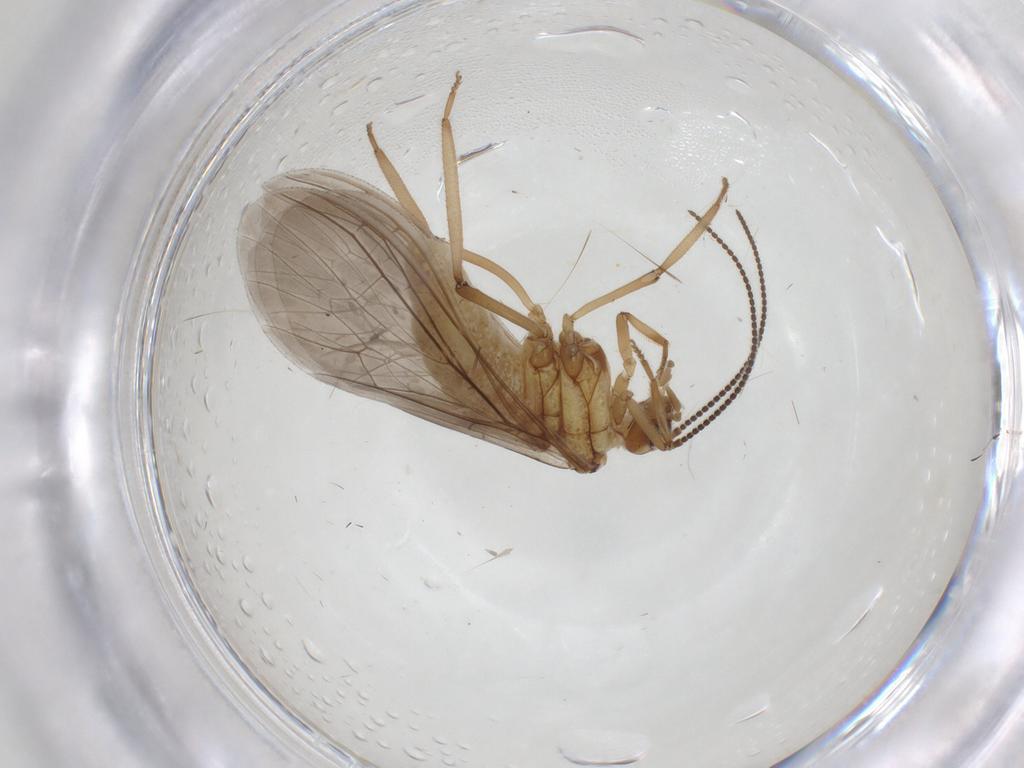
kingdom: Animalia
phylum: Arthropoda
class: Insecta
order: Neuroptera
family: Coniopterygidae
